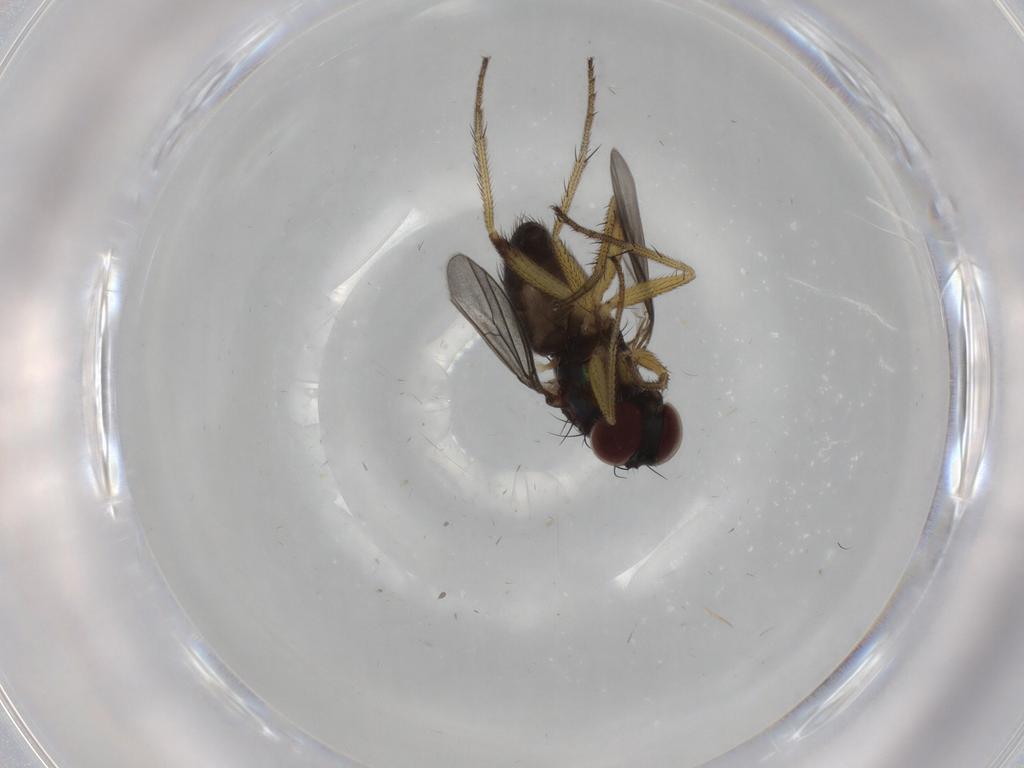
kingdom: Animalia
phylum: Arthropoda
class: Insecta
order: Diptera
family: Dolichopodidae
